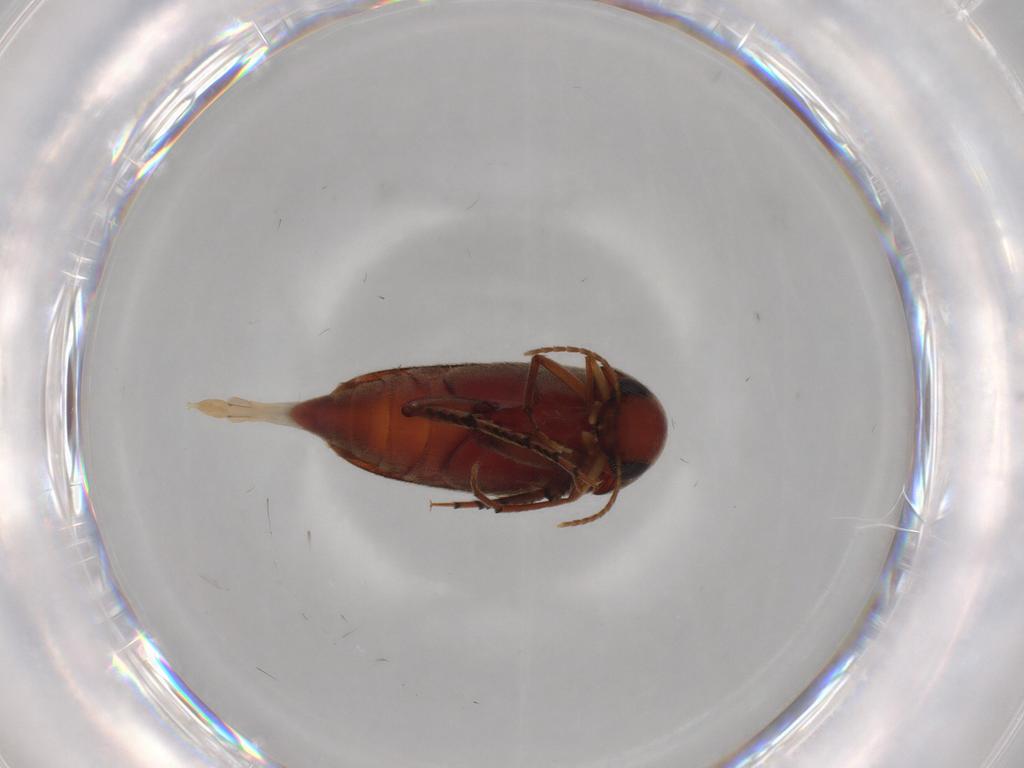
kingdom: Animalia
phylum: Arthropoda
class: Insecta
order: Coleoptera
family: Mordellidae
